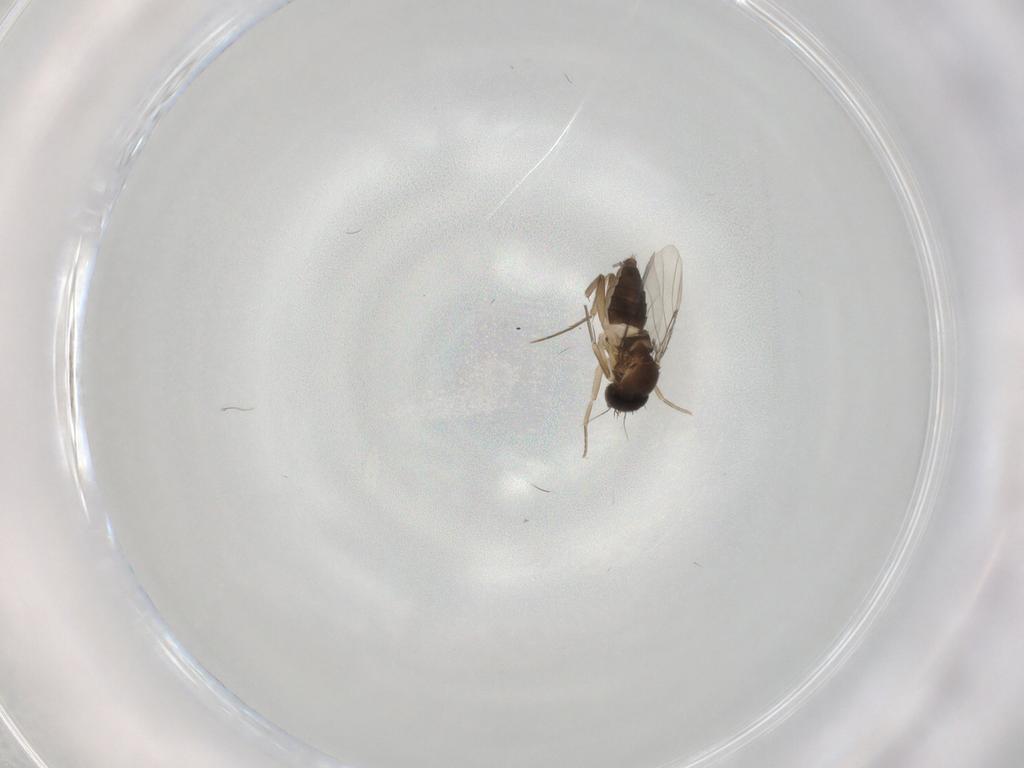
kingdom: Animalia
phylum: Arthropoda
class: Insecta
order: Diptera
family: Phoridae
